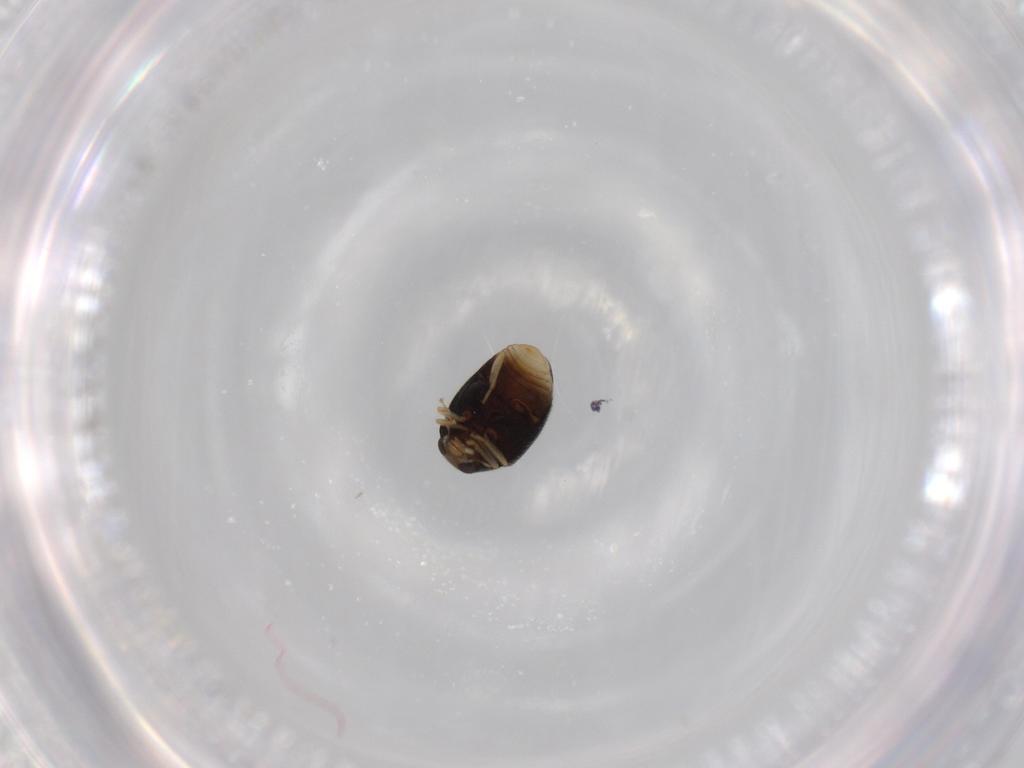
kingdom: Animalia
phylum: Arthropoda
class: Insecta
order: Coleoptera
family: Coccinellidae
